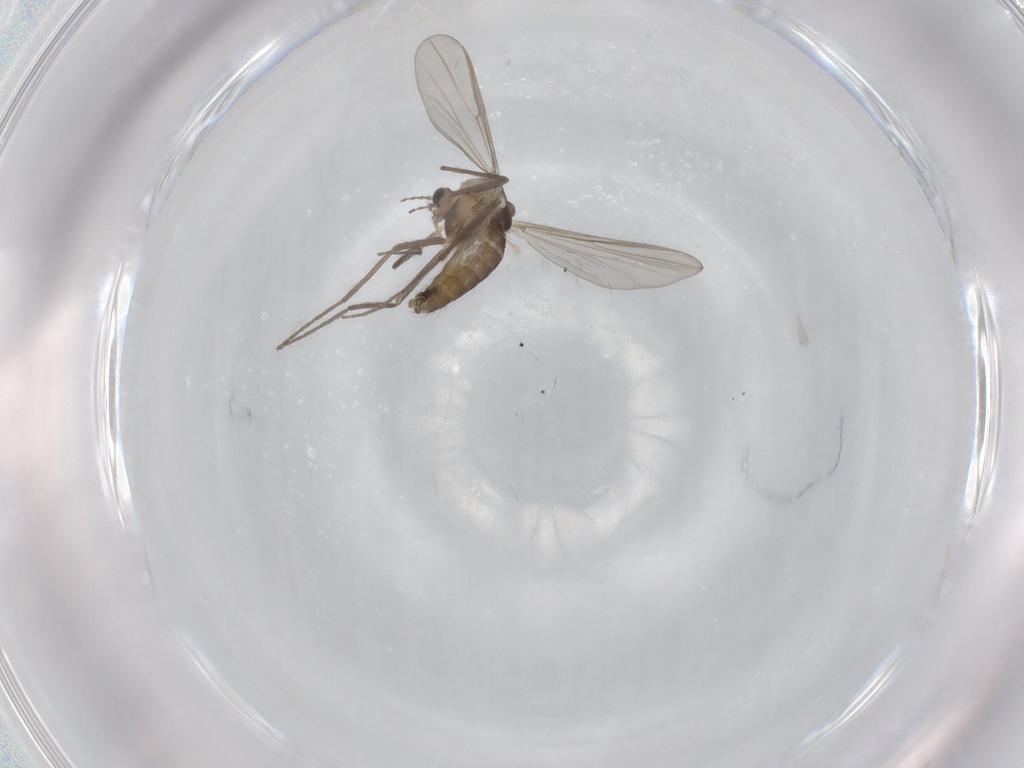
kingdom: Animalia
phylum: Arthropoda
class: Insecta
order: Diptera
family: Chironomidae
